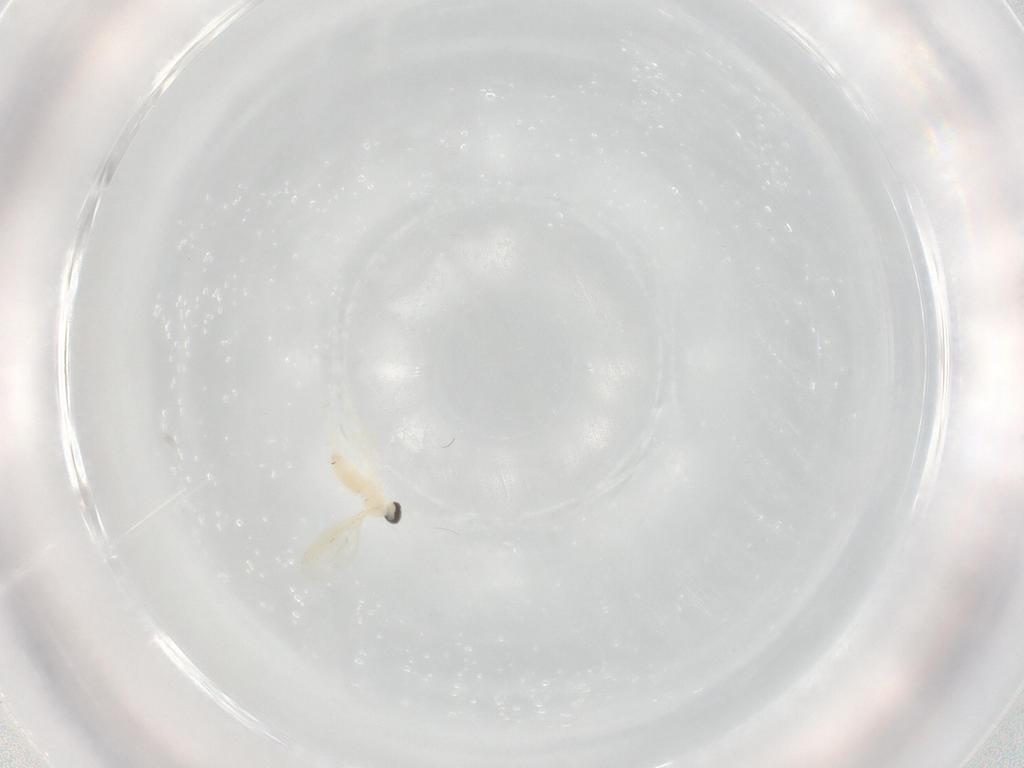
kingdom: Animalia
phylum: Arthropoda
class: Insecta
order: Diptera
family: Cecidomyiidae
